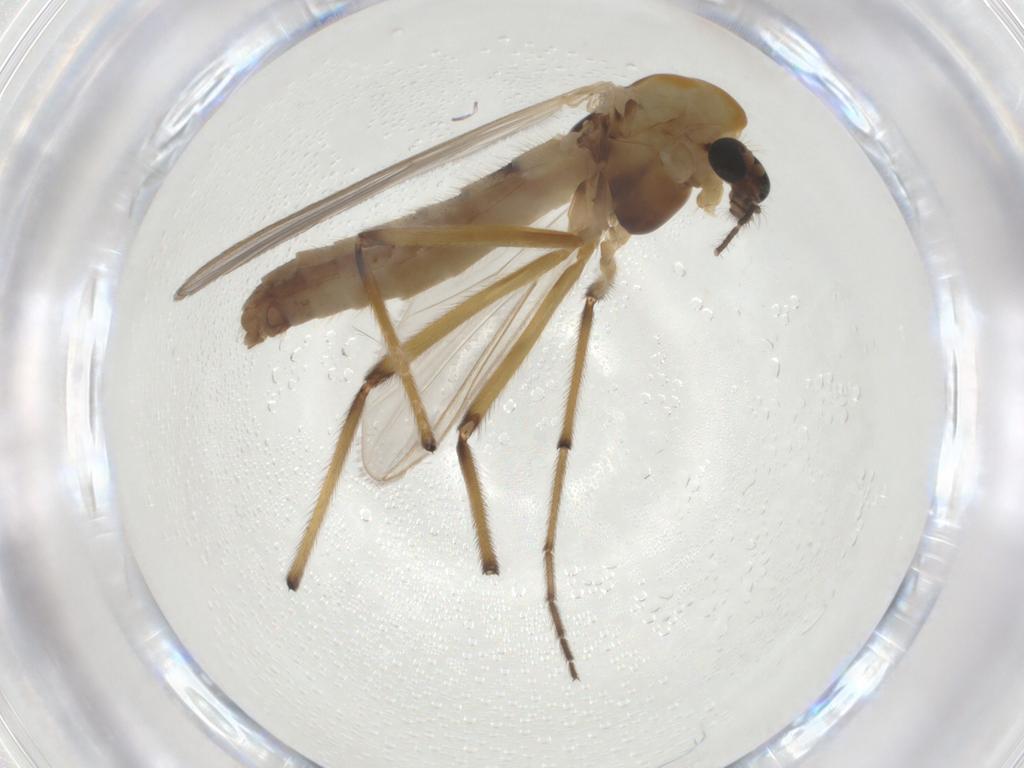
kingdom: Animalia
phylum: Arthropoda
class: Insecta
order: Diptera
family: Chironomidae
